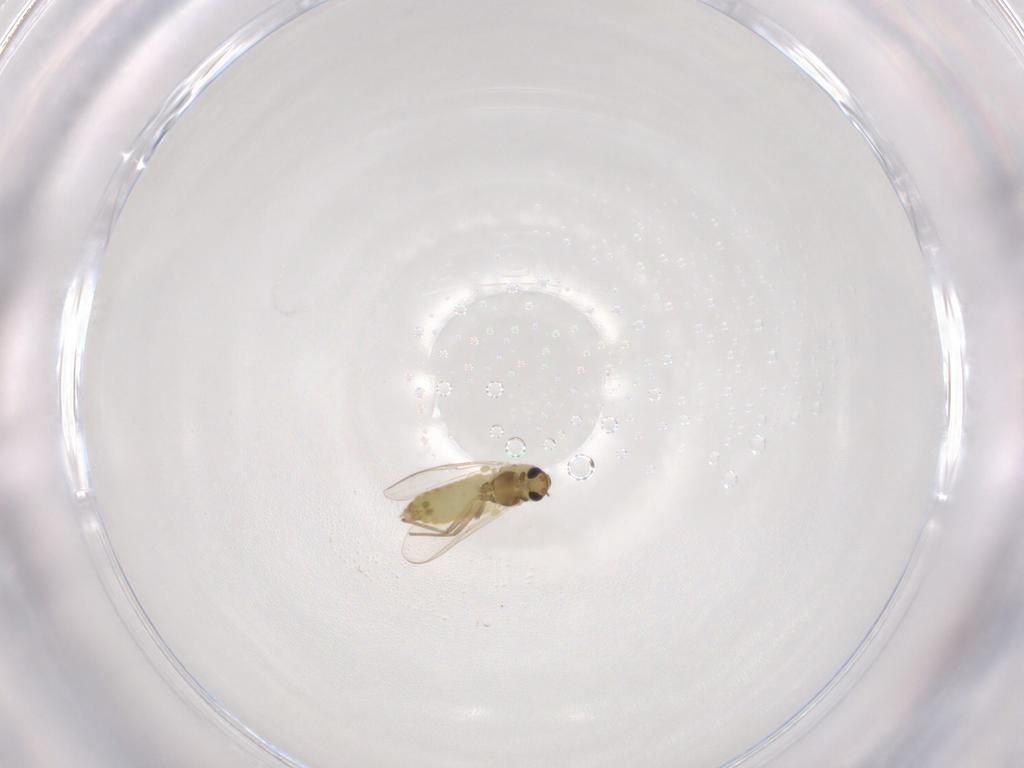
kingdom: Animalia
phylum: Arthropoda
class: Insecta
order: Diptera
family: Chironomidae
